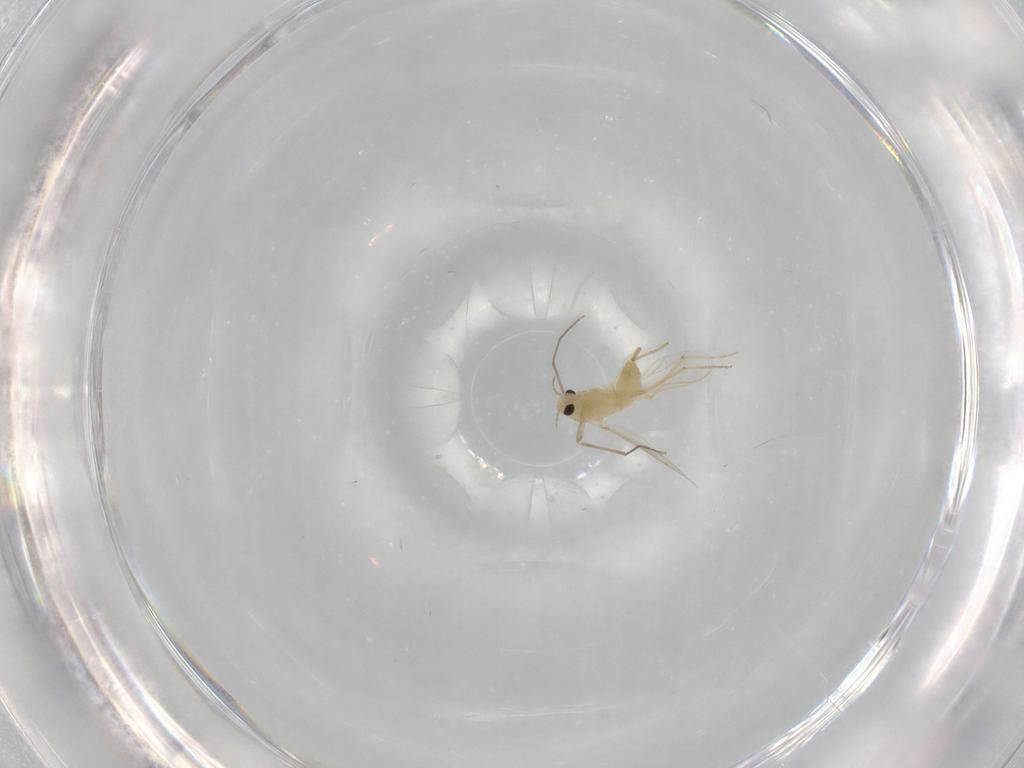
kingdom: Animalia
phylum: Arthropoda
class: Insecta
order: Diptera
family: Chironomidae
